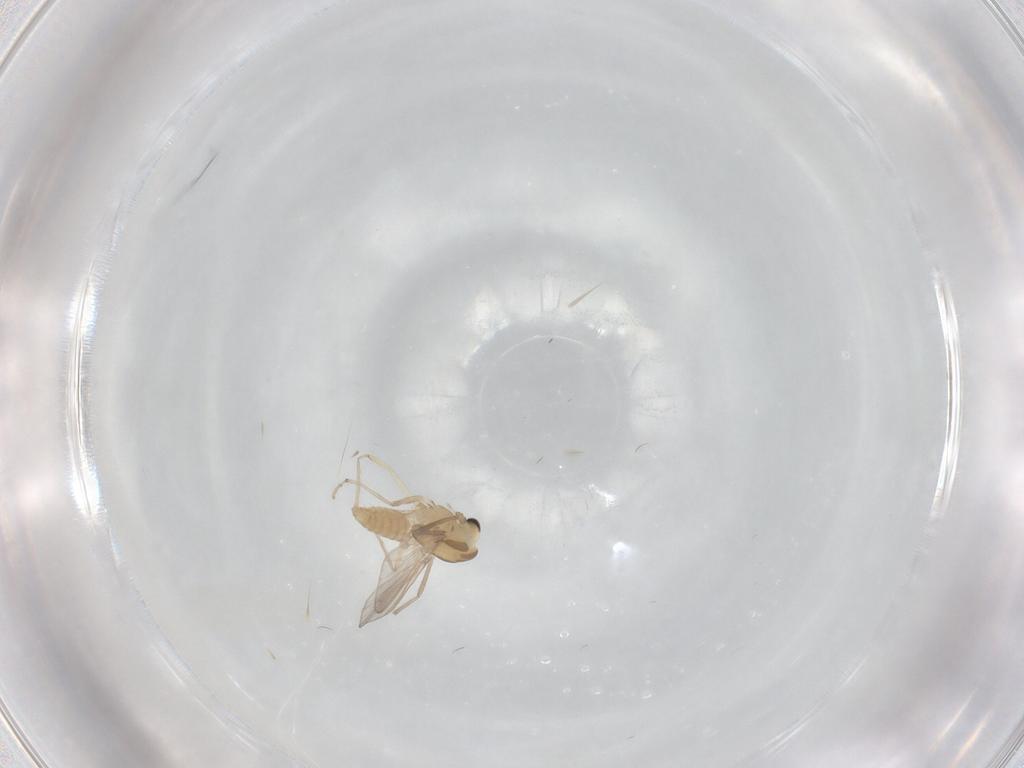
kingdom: Animalia
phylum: Arthropoda
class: Insecta
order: Diptera
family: Chironomidae
